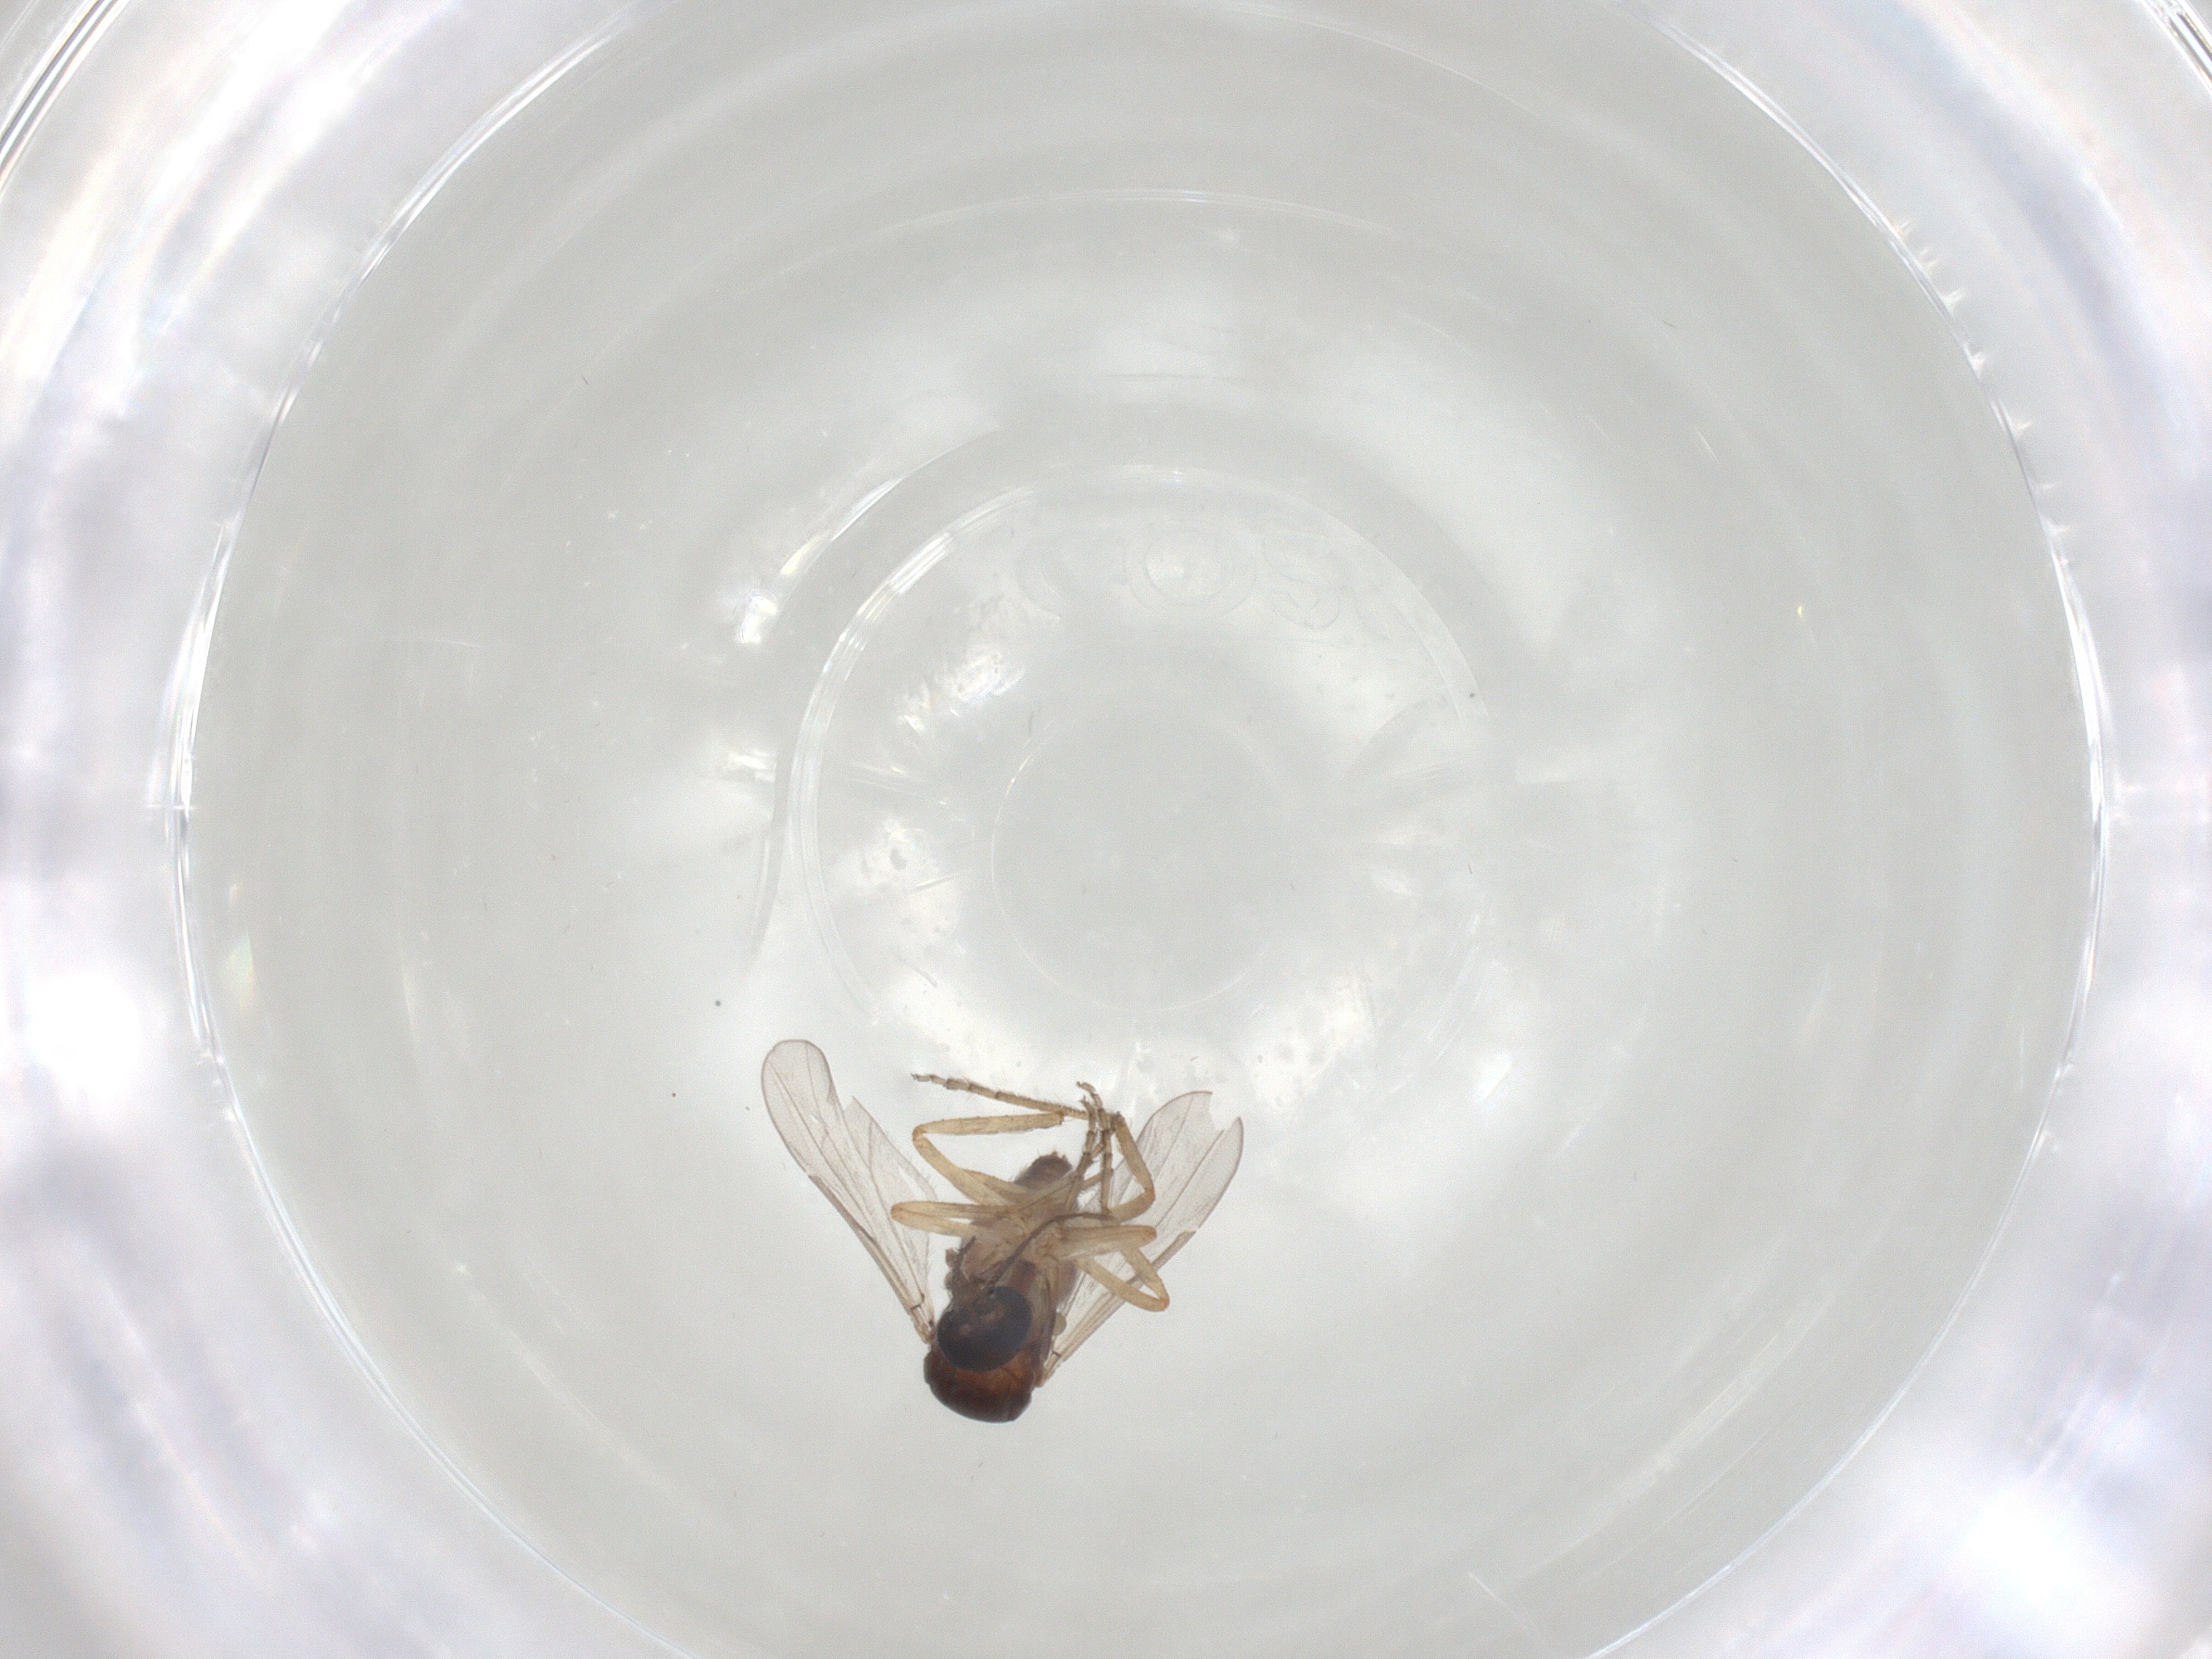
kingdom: Animalia
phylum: Arthropoda
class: Insecta
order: Diptera
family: Ceratopogonidae
